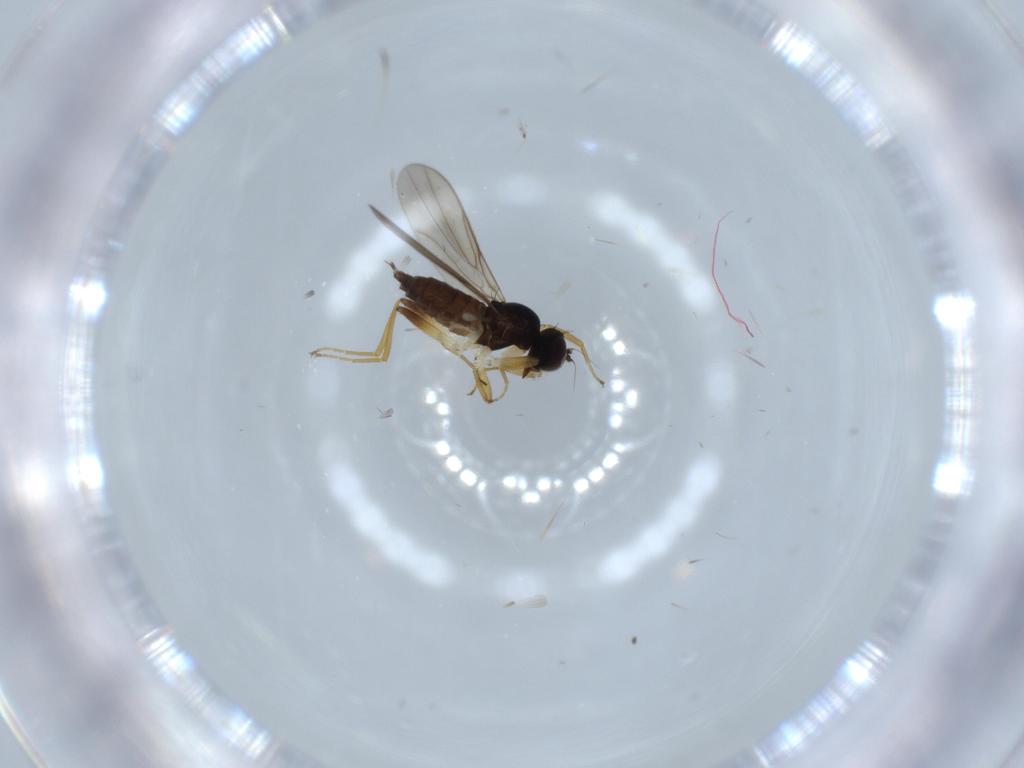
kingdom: Animalia
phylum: Arthropoda
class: Insecta
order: Diptera
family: Hybotidae
